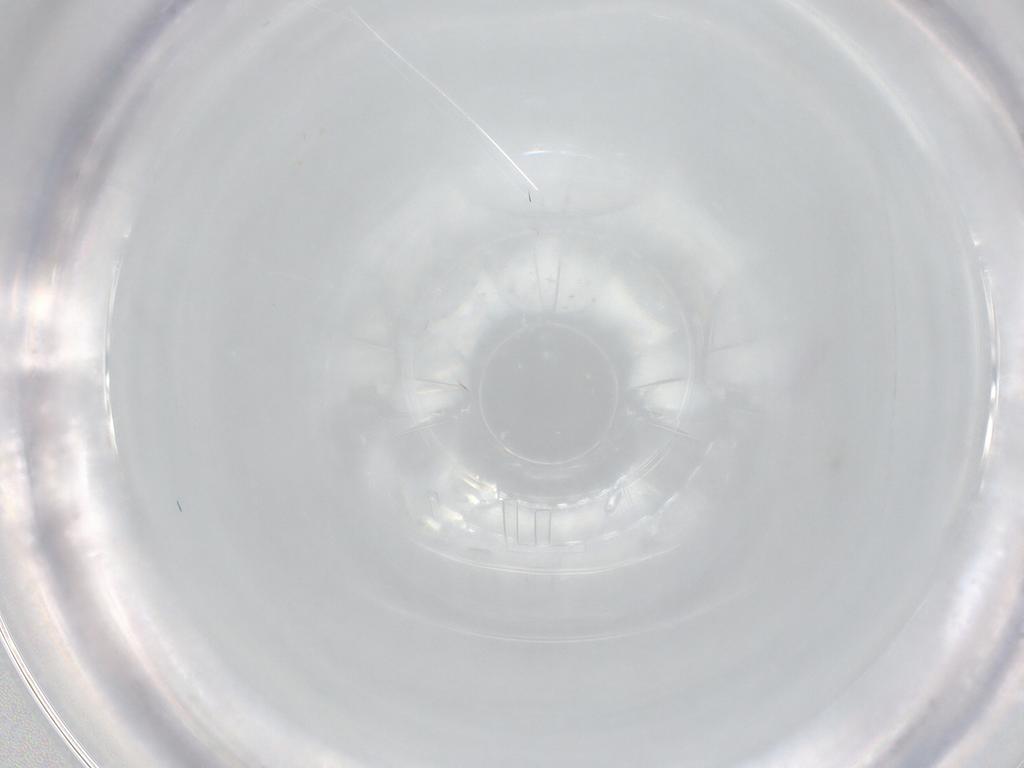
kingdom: Animalia
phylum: Arthropoda
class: Collembola
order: Entomobryomorpha
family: Entomobryidae
